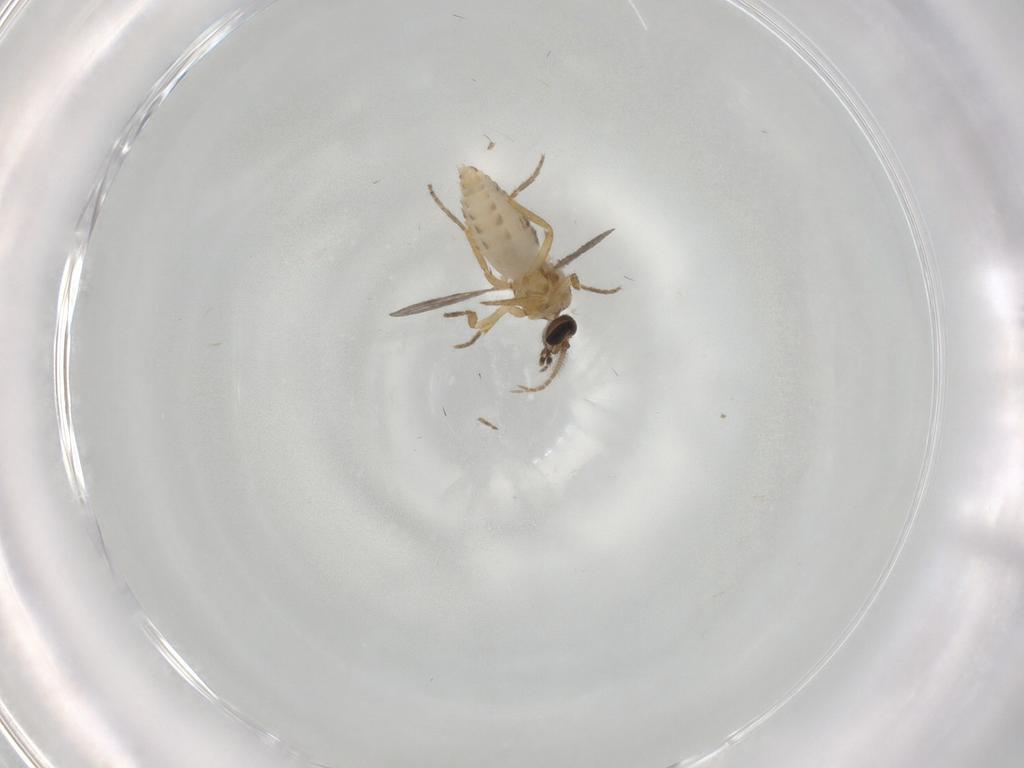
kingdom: Animalia
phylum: Arthropoda
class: Insecta
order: Diptera
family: Ceratopogonidae
